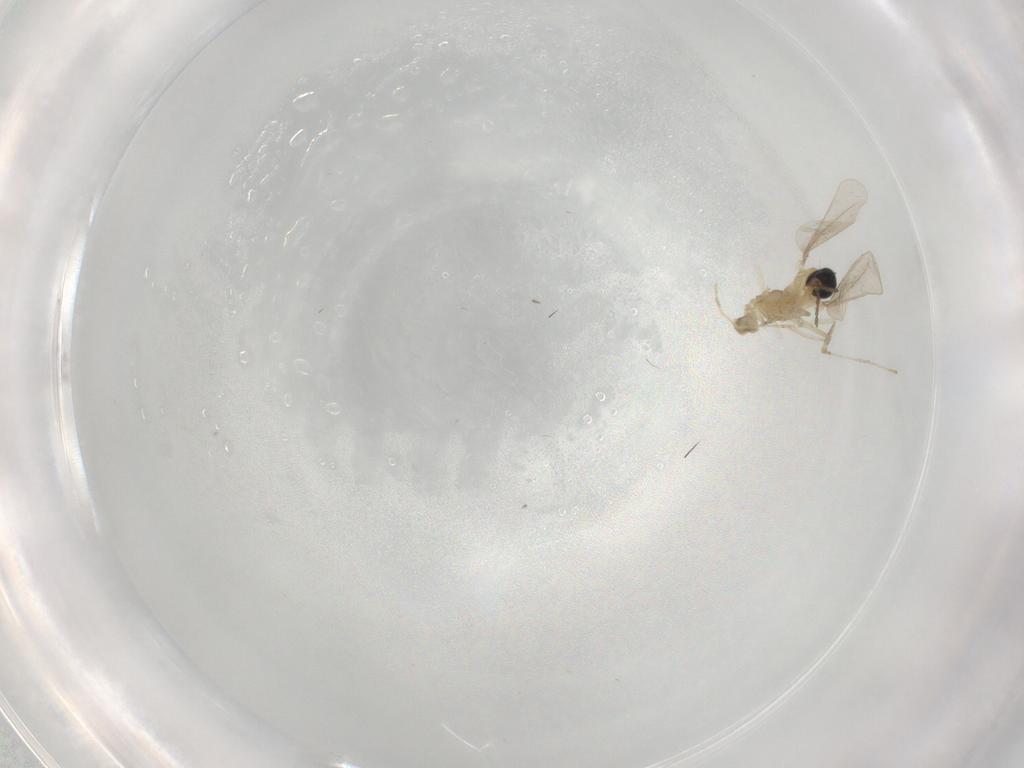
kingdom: Animalia
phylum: Arthropoda
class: Insecta
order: Diptera
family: Cecidomyiidae
